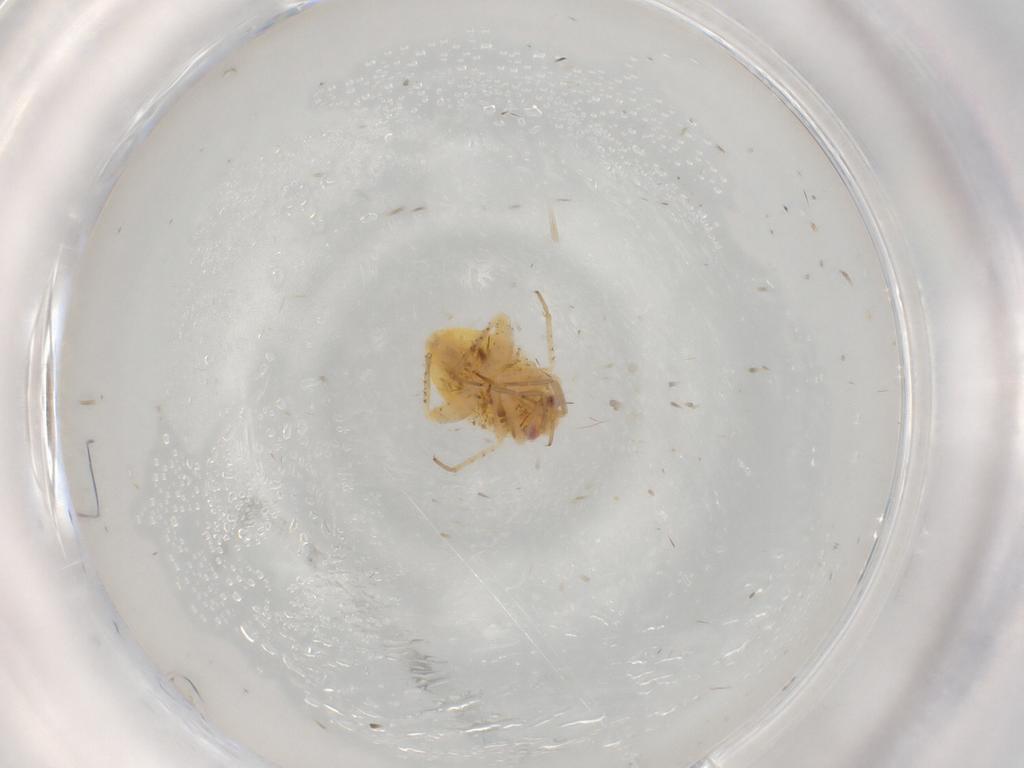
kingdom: Animalia
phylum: Arthropoda
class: Insecta
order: Hemiptera
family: Miridae
